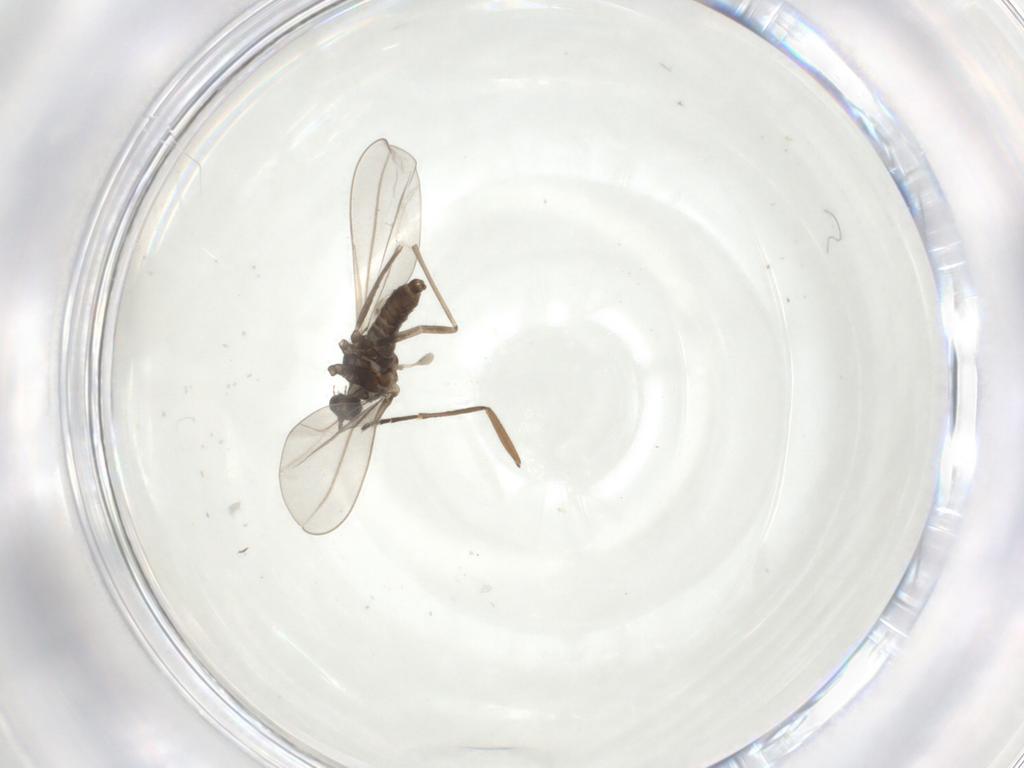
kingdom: Animalia
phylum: Arthropoda
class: Insecta
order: Diptera
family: Cecidomyiidae
